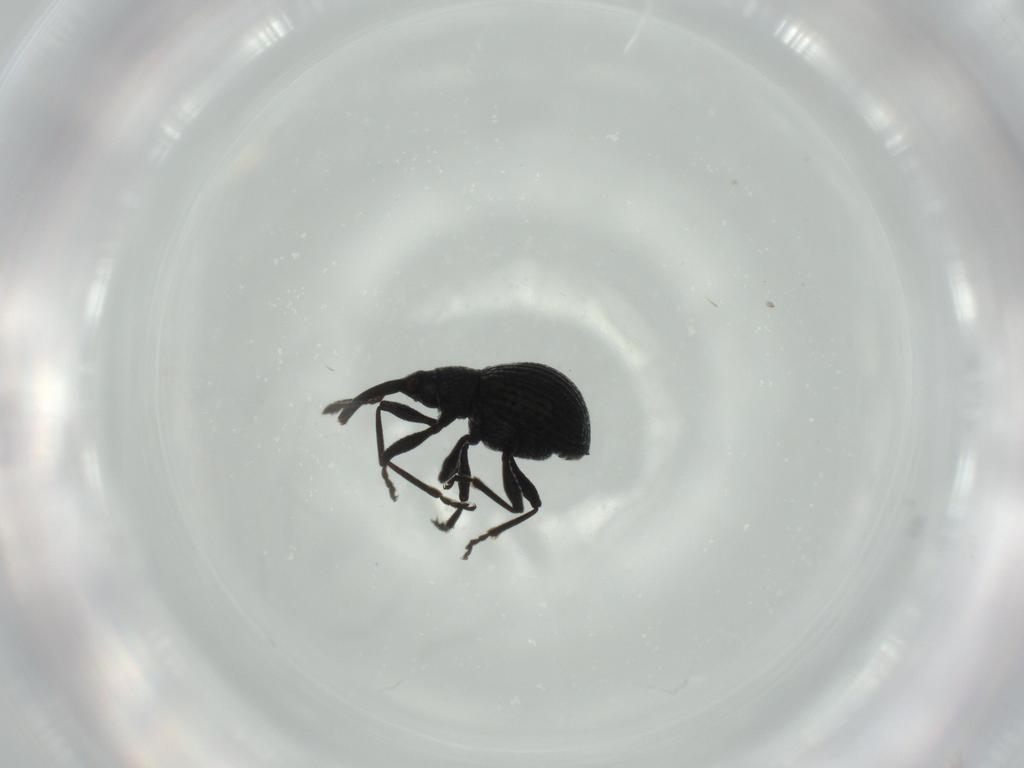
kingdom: Animalia
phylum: Arthropoda
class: Insecta
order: Coleoptera
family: Brentidae
